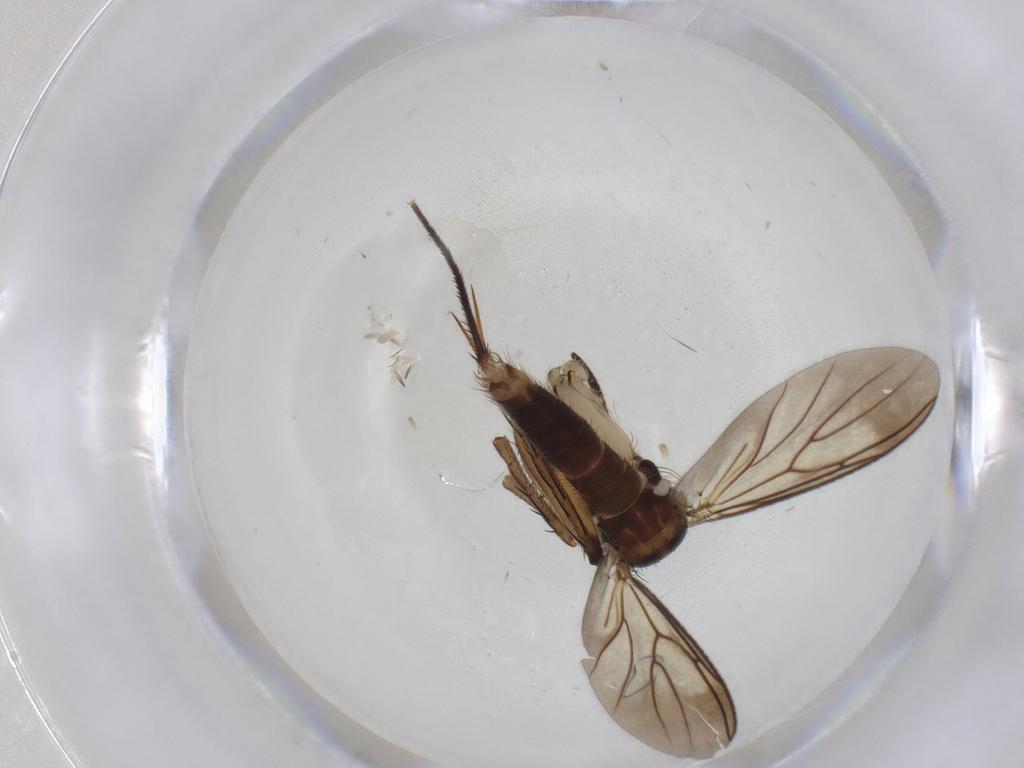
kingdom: Animalia
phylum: Arthropoda
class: Insecta
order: Diptera
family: Mycetophilidae
